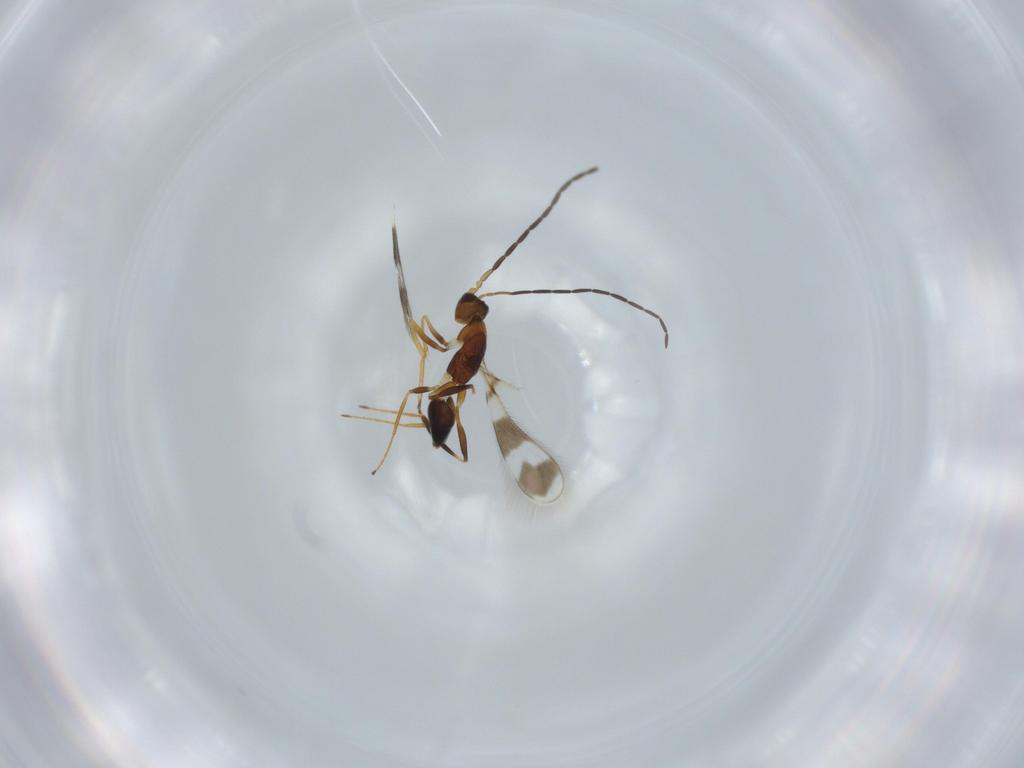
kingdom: Animalia
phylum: Arthropoda
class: Insecta
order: Hymenoptera
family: Mymaridae
